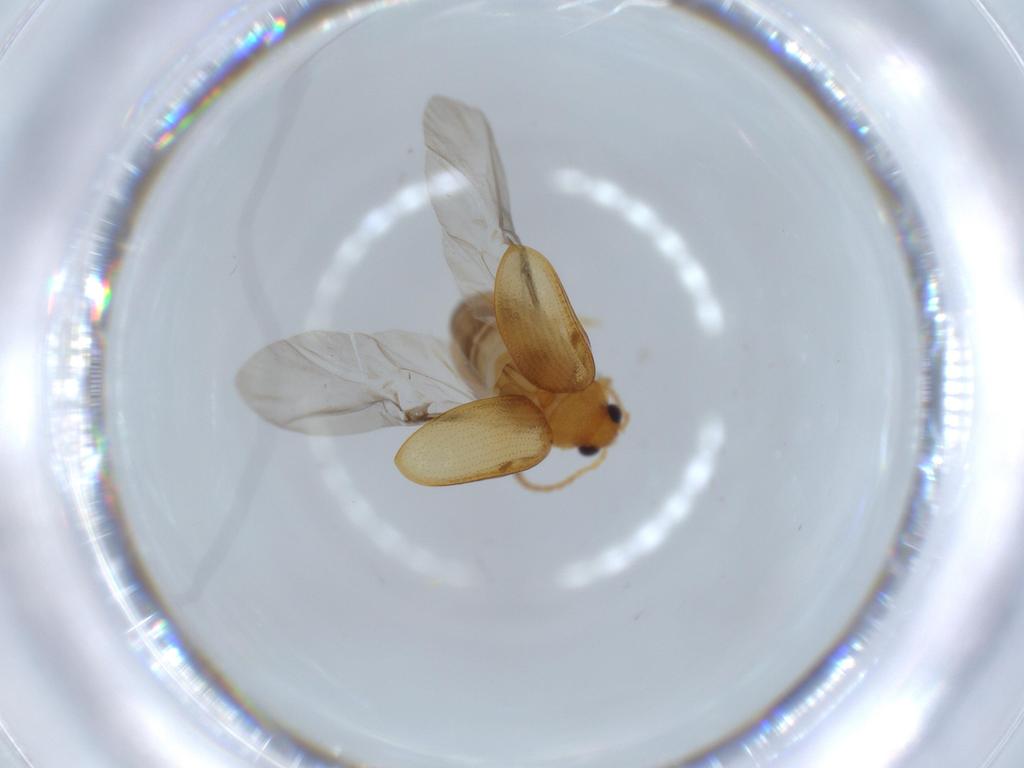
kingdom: Animalia
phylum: Arthropoda
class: Insecta
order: Coleoptera
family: Chrysomelidae
